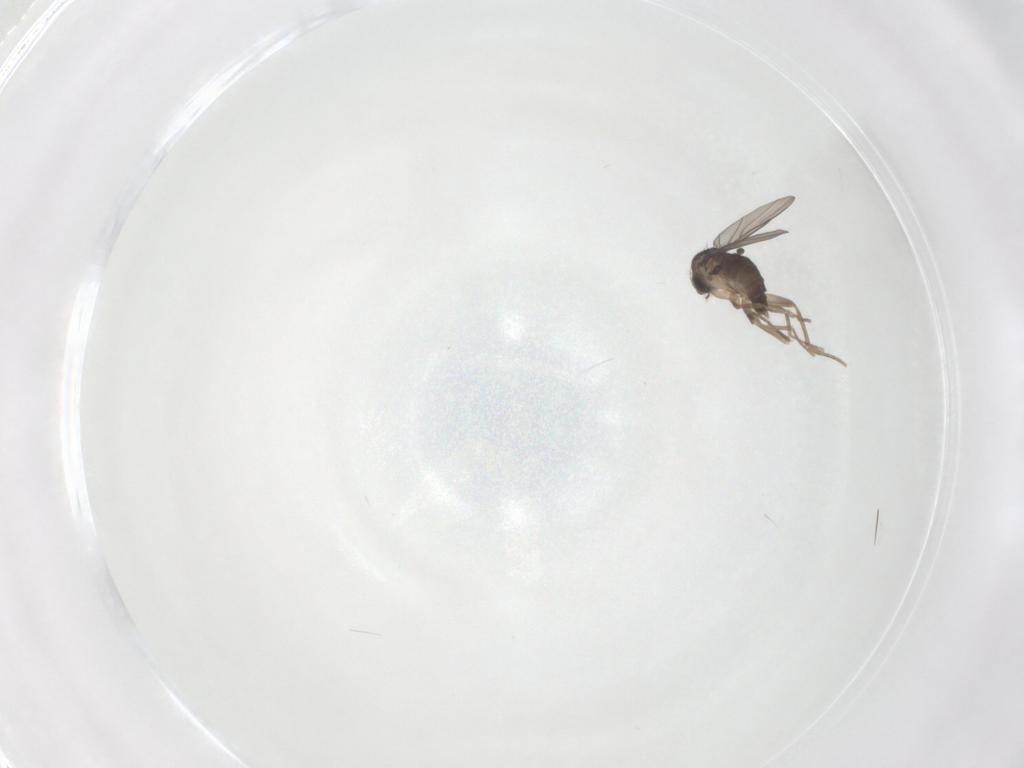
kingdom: Animalia
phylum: Arthropoda
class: Insecta
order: Diptera
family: Phoridae
